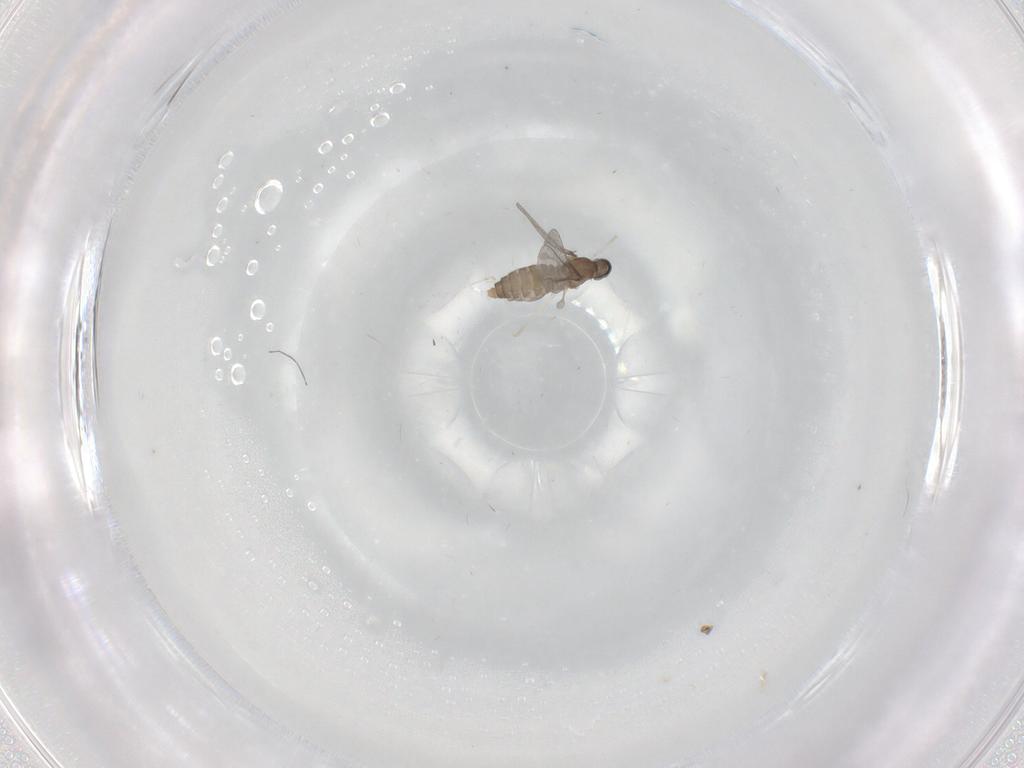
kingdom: Animalia
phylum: Arthropoda
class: Insecta
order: Diptera
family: Cecidomyiidae
